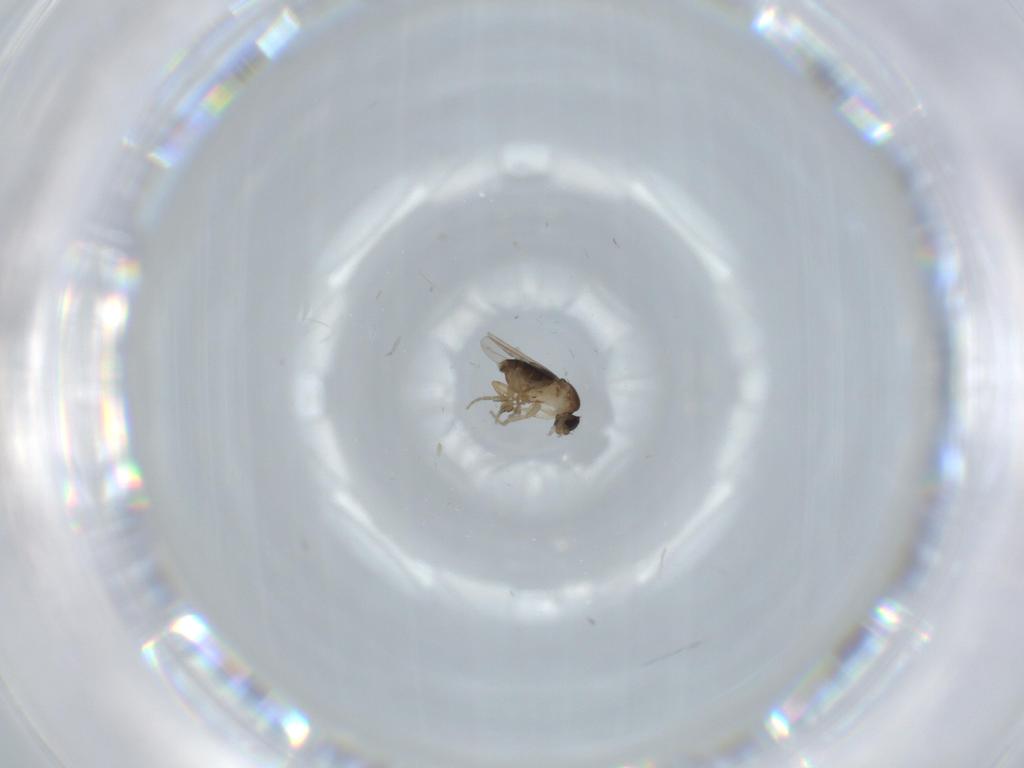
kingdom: Animalia
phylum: Arthropoda
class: Insecta
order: Diptera
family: Phoridae
